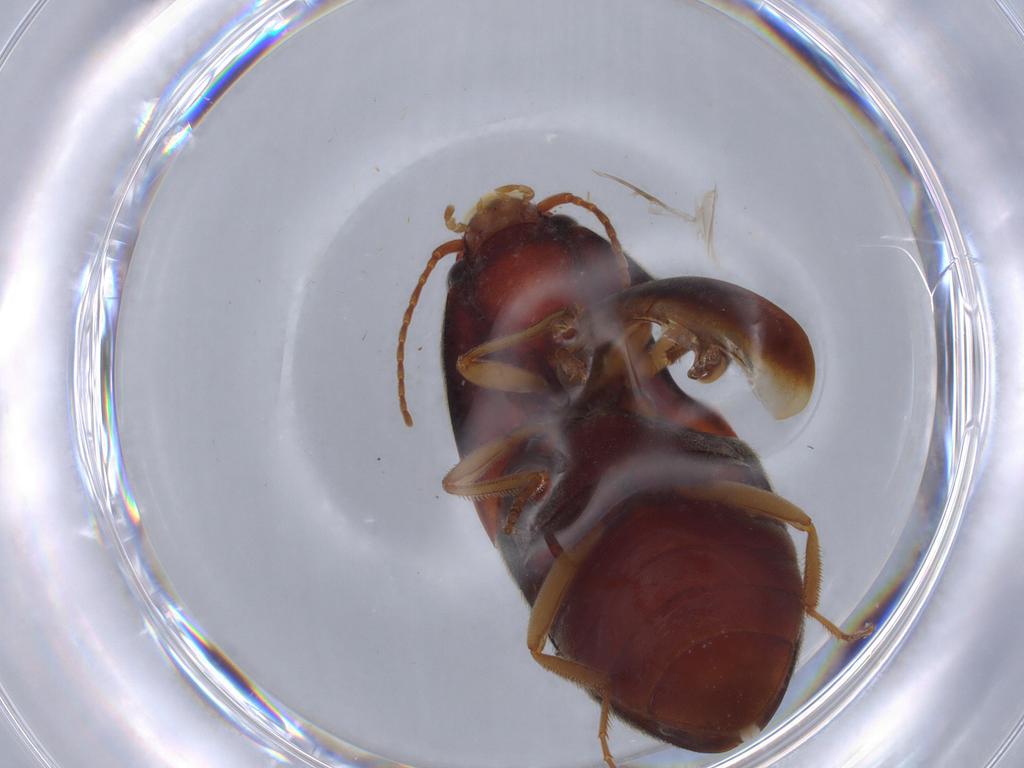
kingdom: Animalia
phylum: Arthropoda
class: Insecta
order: Coleoptera
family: Elateridae
